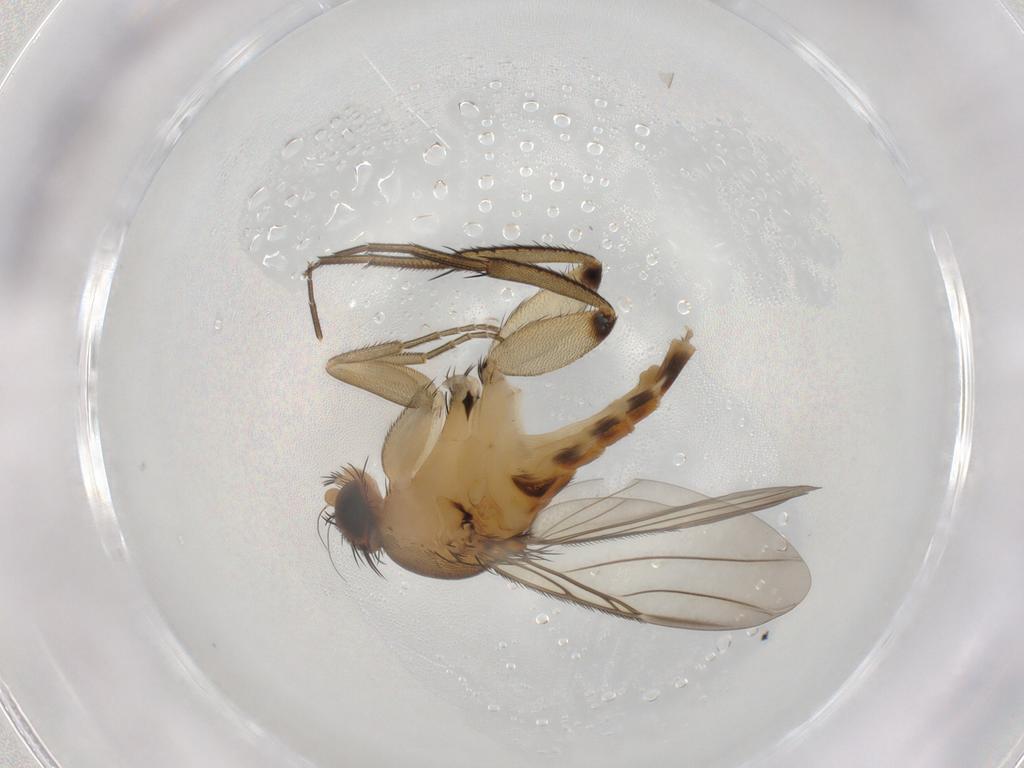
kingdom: Animalia
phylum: Arthropoda
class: Insecta
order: Diptera
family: Phoridae
